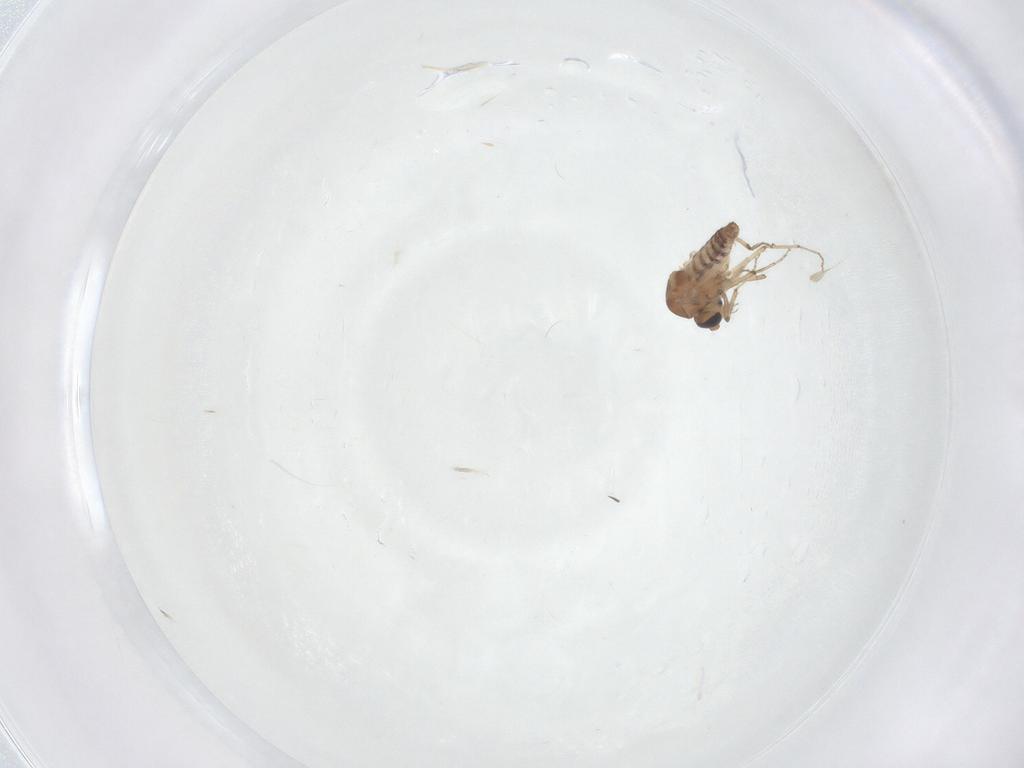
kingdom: Animalia
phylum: Arthropoda
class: Insecta
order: Diptera
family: Ceratopogonidae
